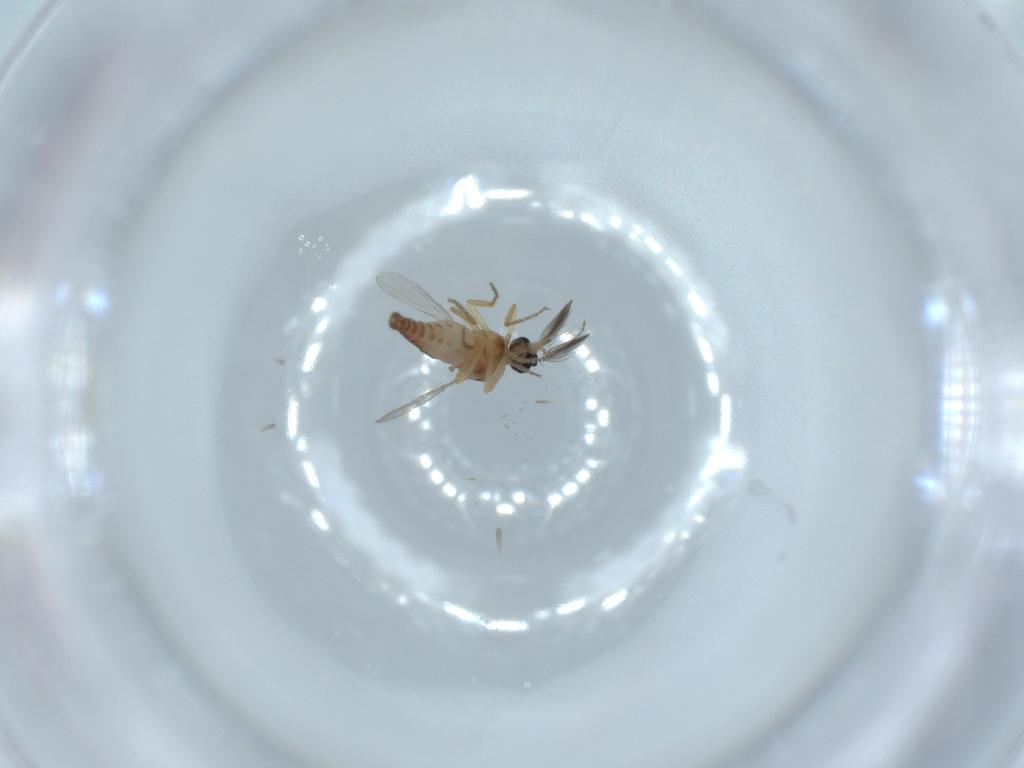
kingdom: Animalia
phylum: Arthropoda
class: Insecta
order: Diptera
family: Ceratopogonidae
